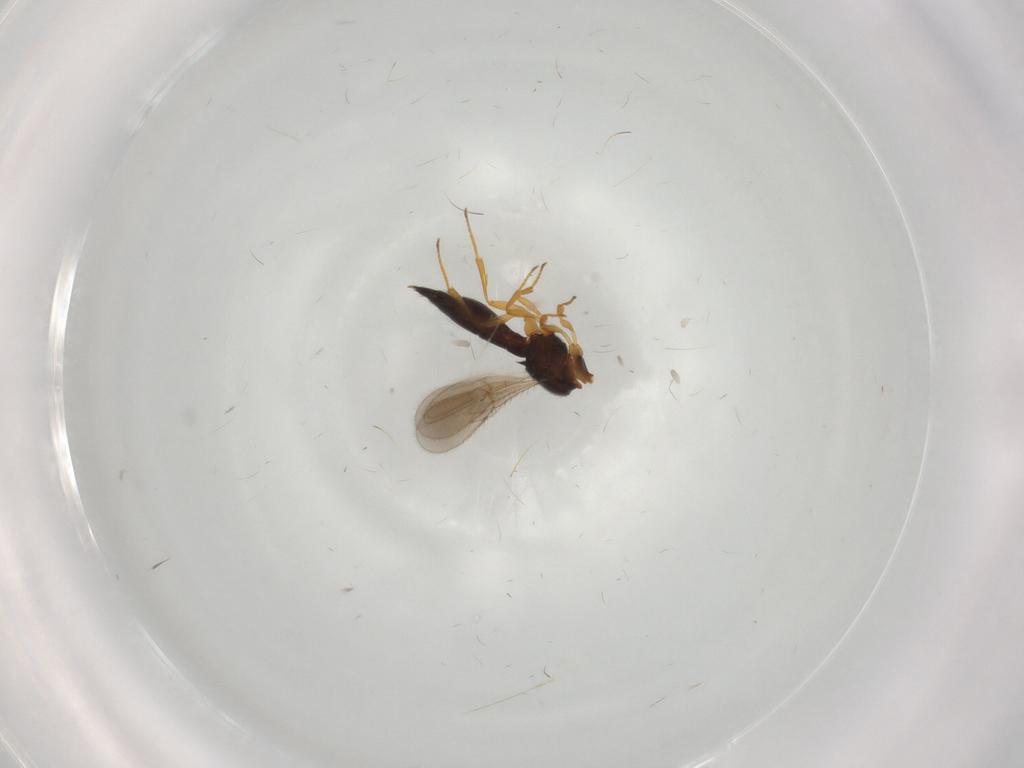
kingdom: Animalia
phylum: Arthropoda
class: Insecta
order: Hymenoptera
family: Scelionidae
